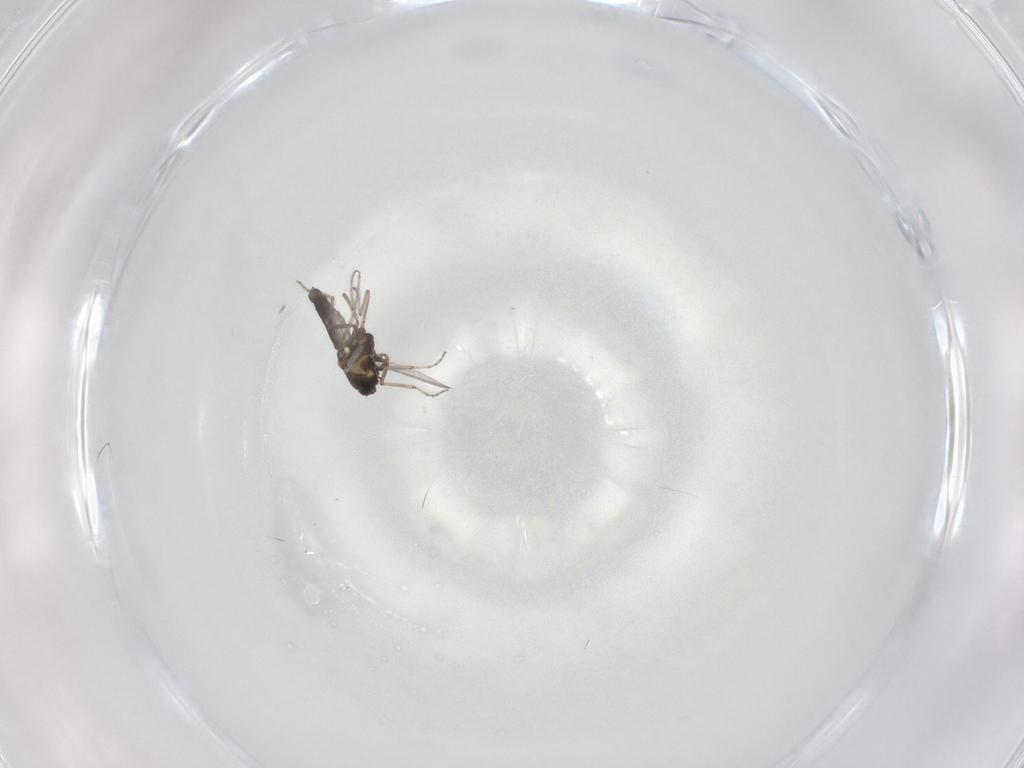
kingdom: Animalia
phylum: Arthropoda
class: Insecta
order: Diptera
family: Ceratopogonidae
